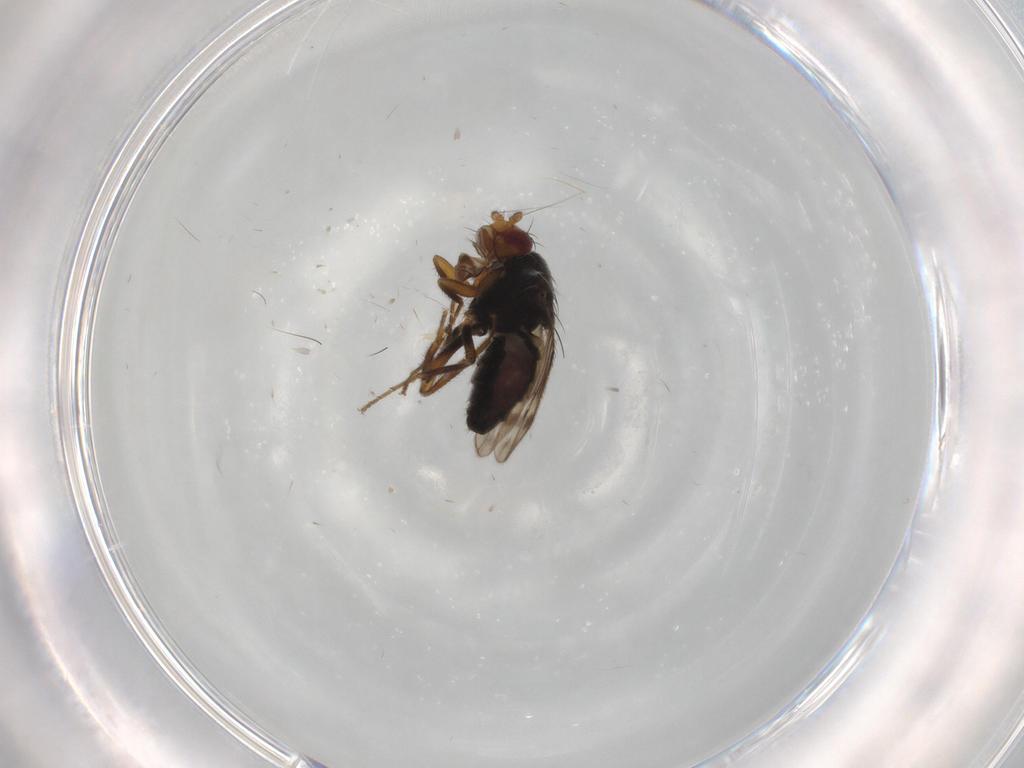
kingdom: Animalia
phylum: Arthropoda
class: Insecta
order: Diptera
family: Sphaeroceridae
